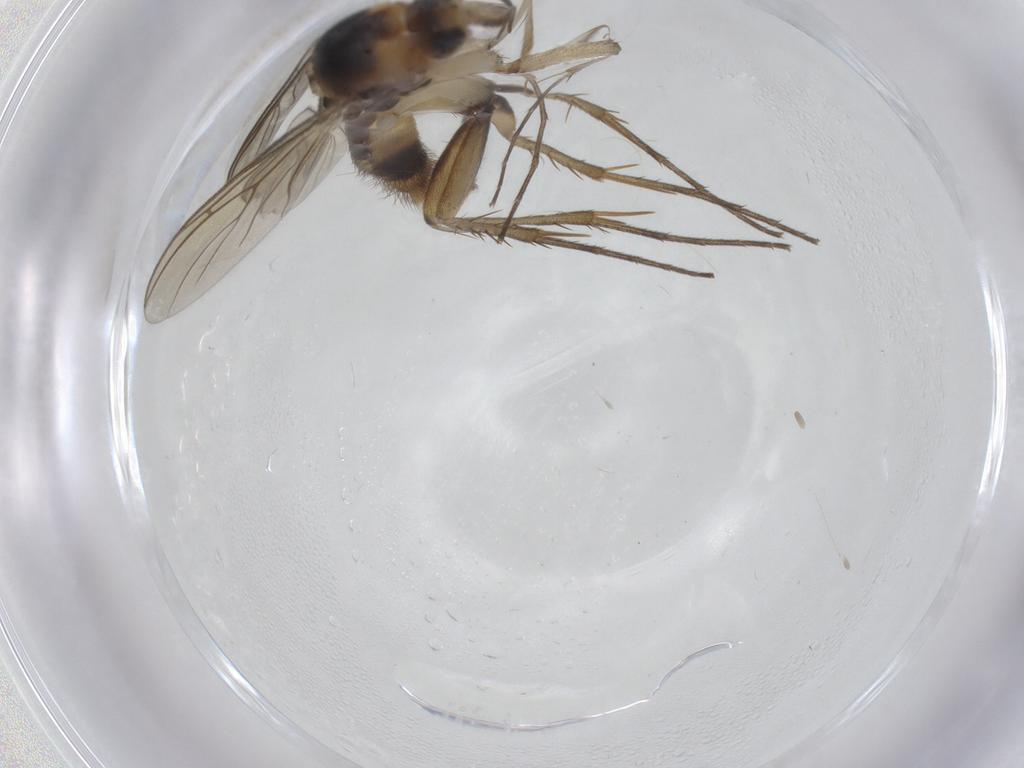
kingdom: Animalia
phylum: Arthropoda
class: Insecta
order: Diptera
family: Mycetophilidae
